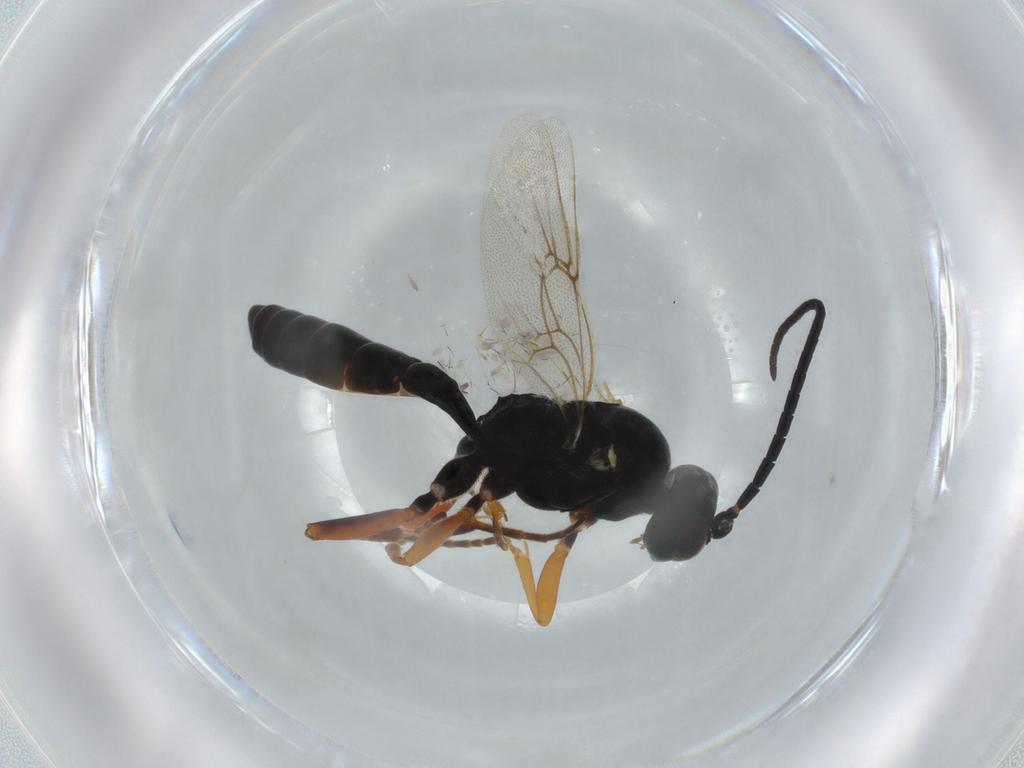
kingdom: Animalia
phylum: Arthropoda
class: Insecta
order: Hymenoptera
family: Ichneumonidae
